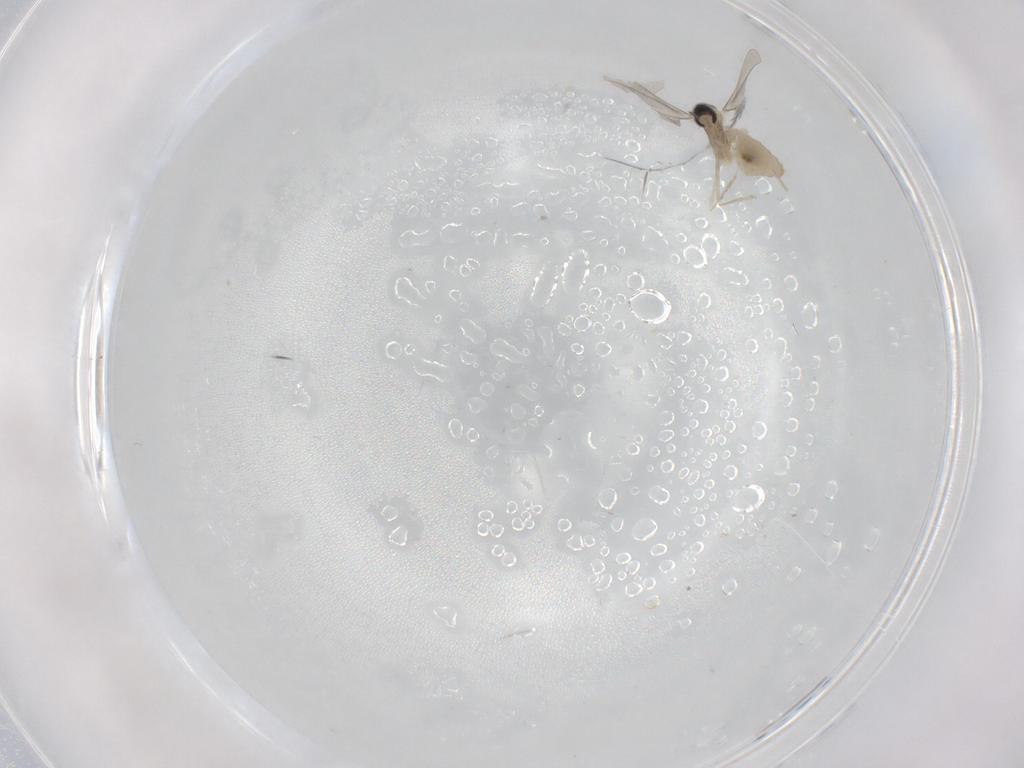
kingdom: Animalia
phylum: Arthropoda
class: Insecta
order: Diptera
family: Cecidomyiidae
